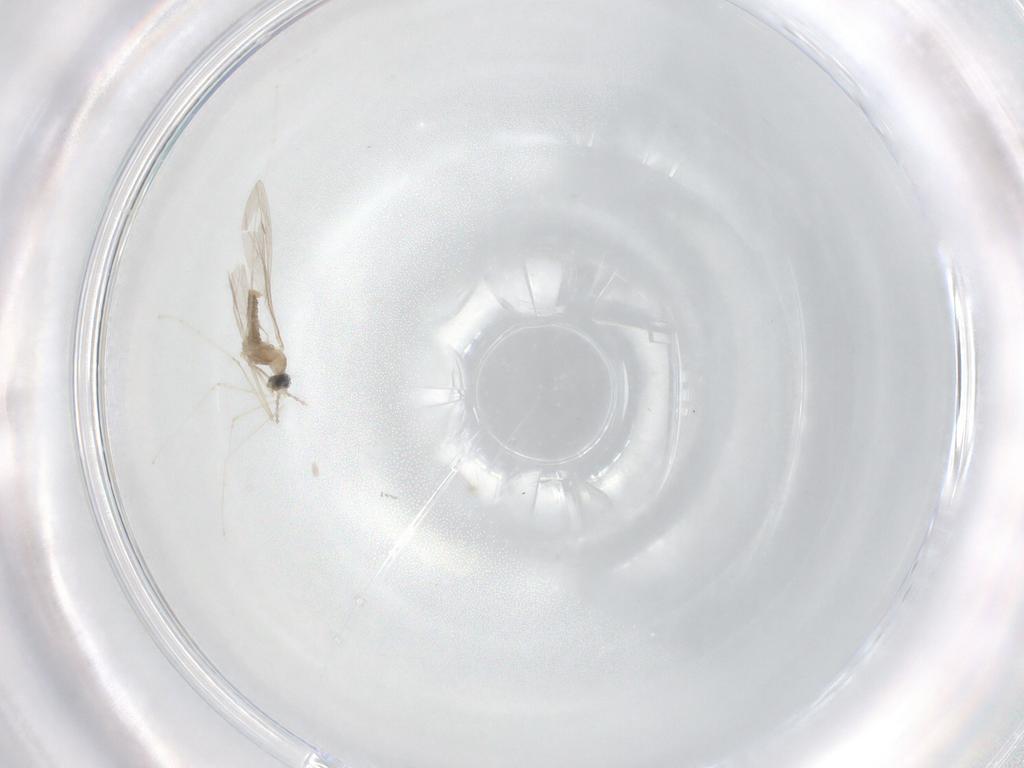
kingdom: Animalia
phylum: Arthropoda
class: Insecta
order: Diptera
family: Cecidomyiidae
